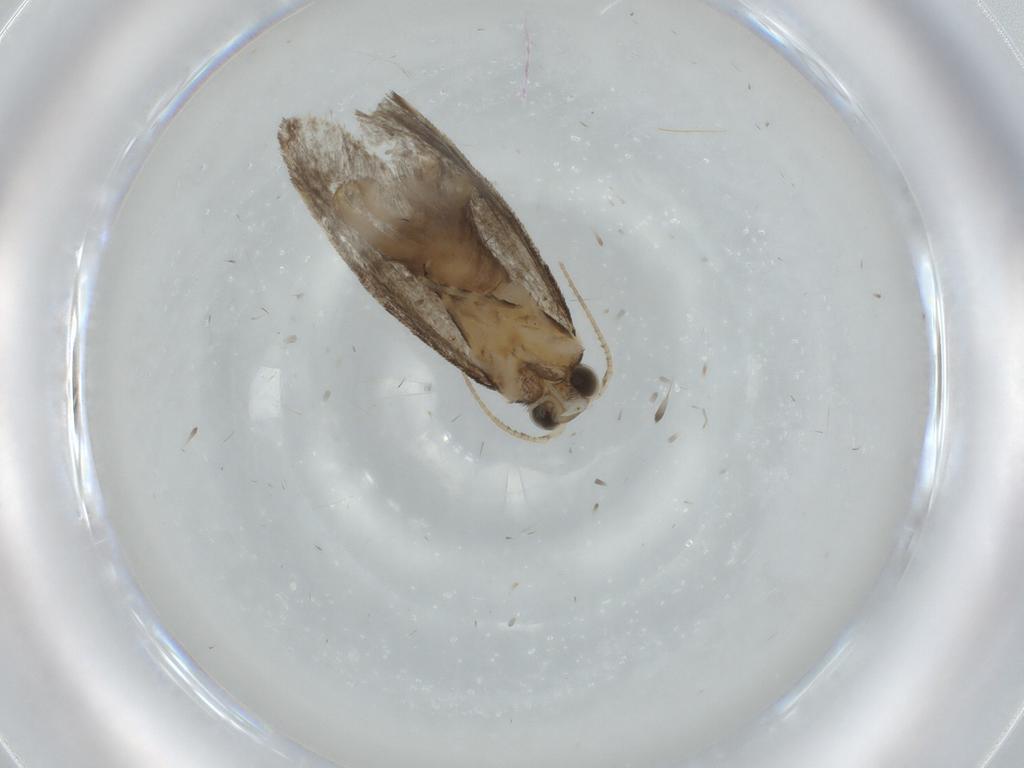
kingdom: Animalia
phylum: Arthropoda
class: Insecta
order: Lepidoptera
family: Tineidae
